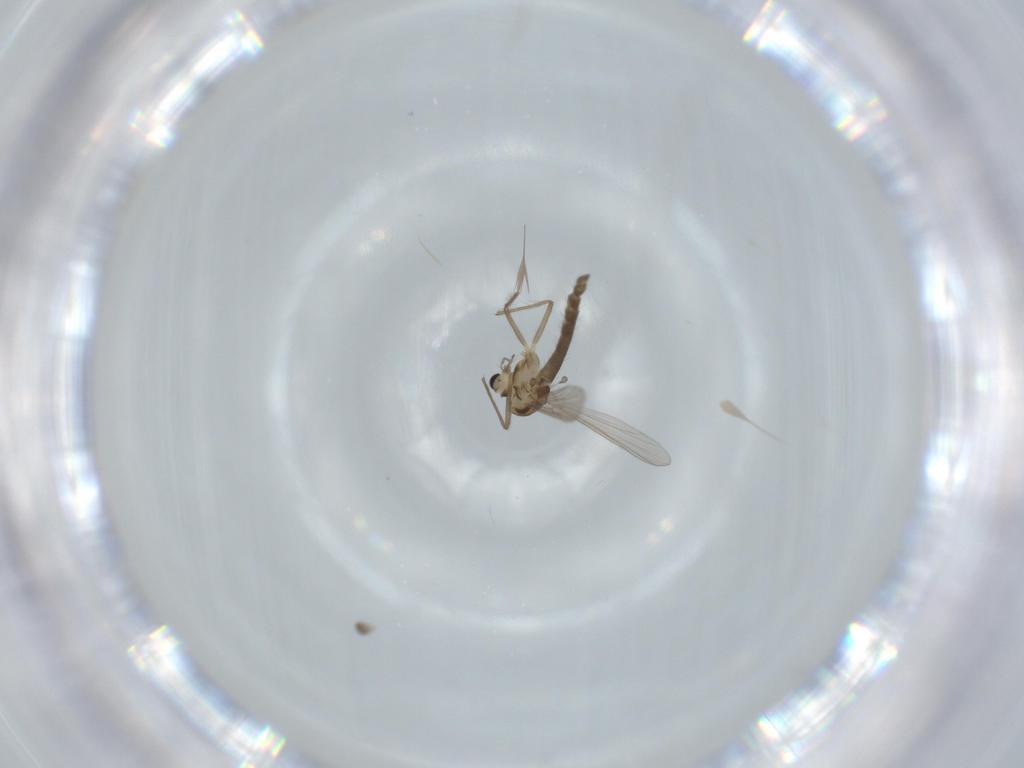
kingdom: Animalia
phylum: Arthropoda
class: Insecta
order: Diptera
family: Chironomidae
